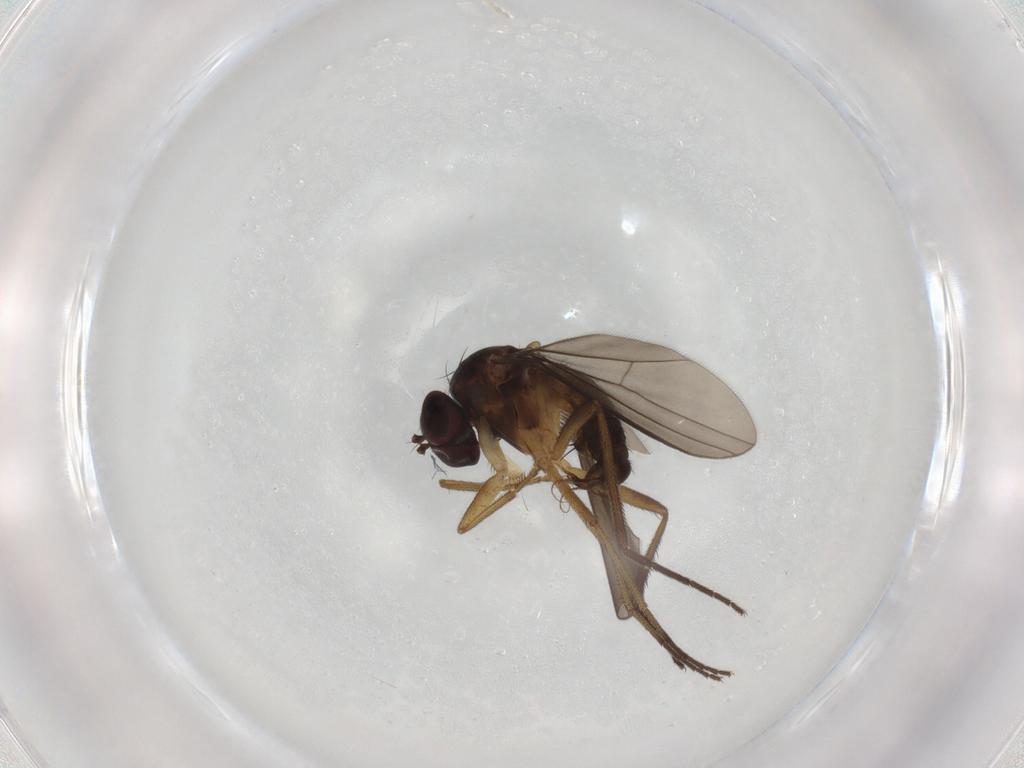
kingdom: Animalia
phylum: Arthropoda
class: Insecta
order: Diptera
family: Dolichopodidae
